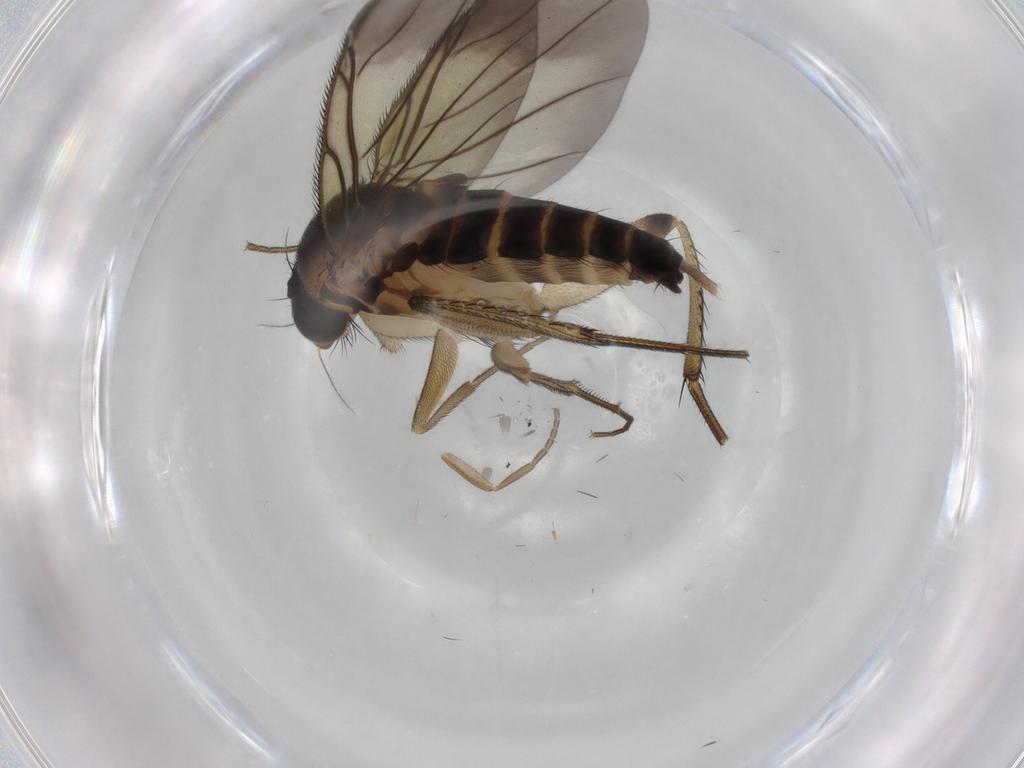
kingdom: Animalia
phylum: Arthropoda
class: Insecta
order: Diptera
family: Phoridae
